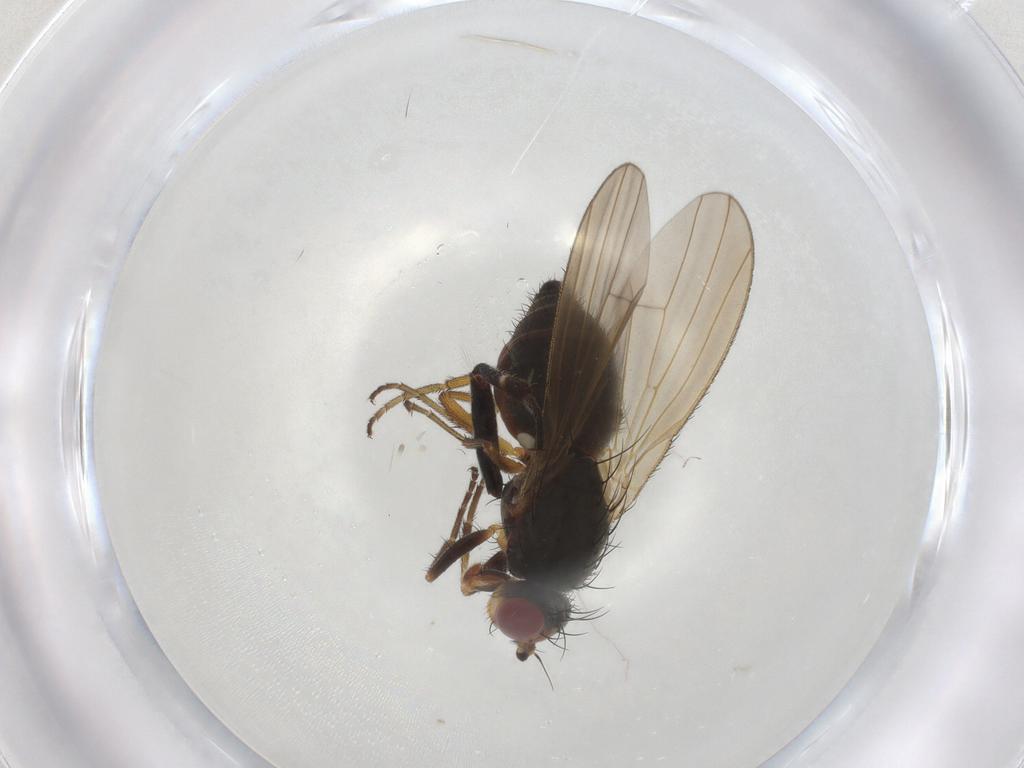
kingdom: Animalia
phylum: Arthropoda
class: Insecta
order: Diptera
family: Heleomyzidae
